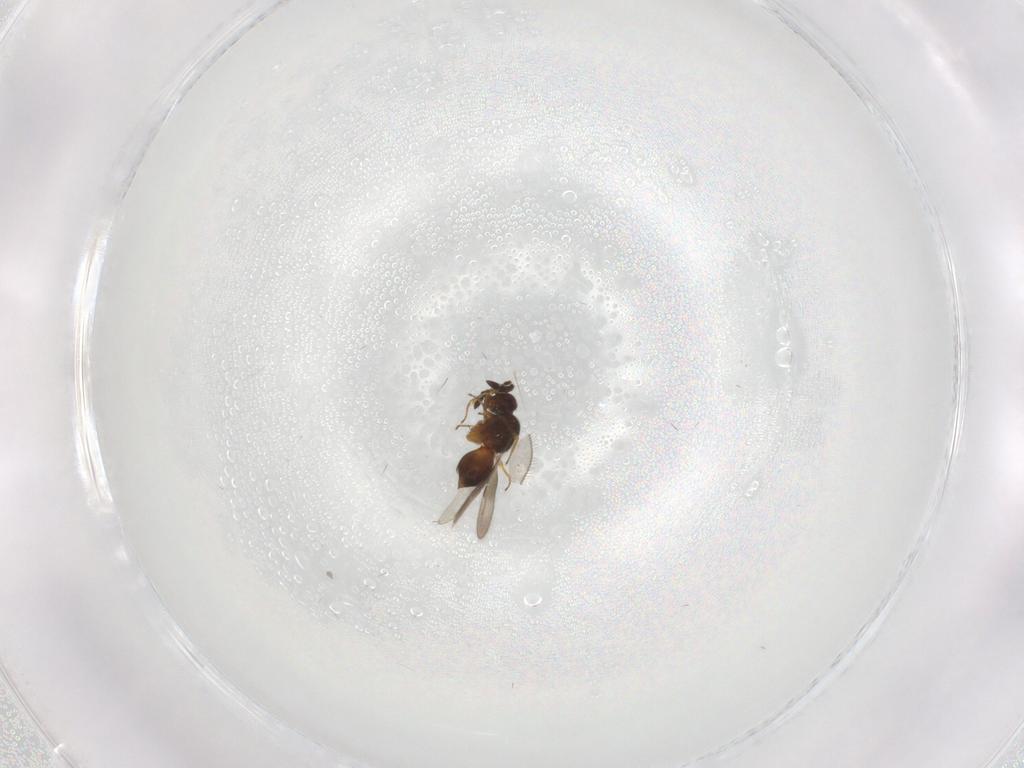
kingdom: Animalia
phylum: Arthropoda
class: Insecta
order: Hymenoptera
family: Ceraphronidae
